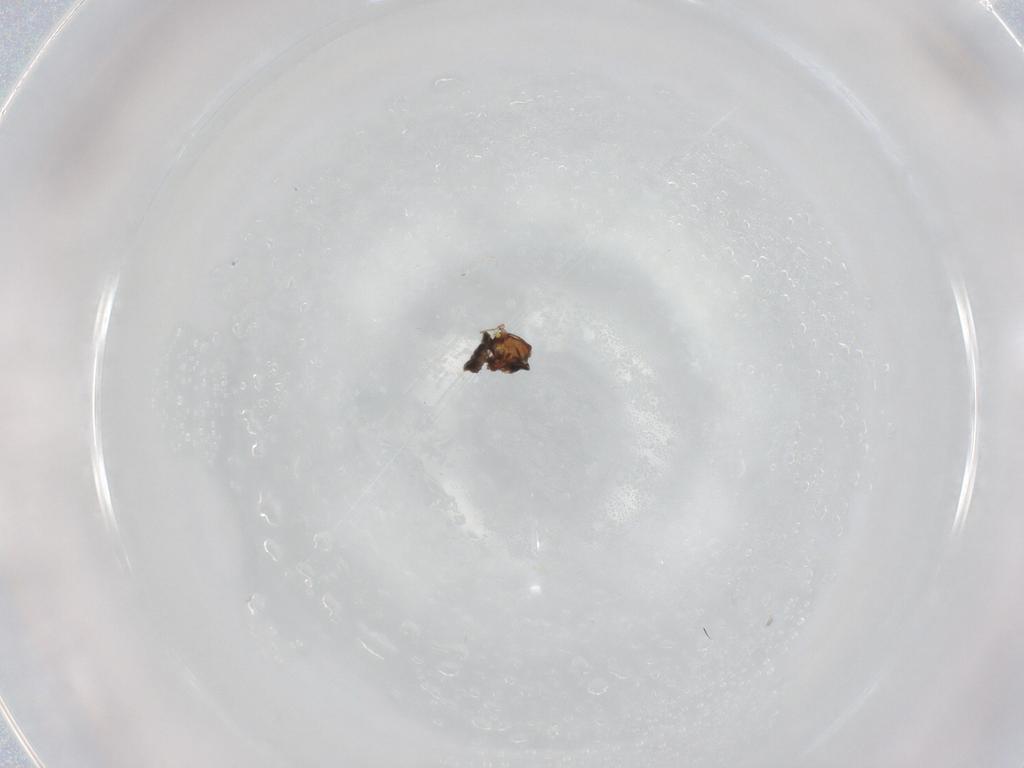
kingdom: Animalia
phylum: Arthropoda
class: Insecta
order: Diptera
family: Ceratopogonidae
